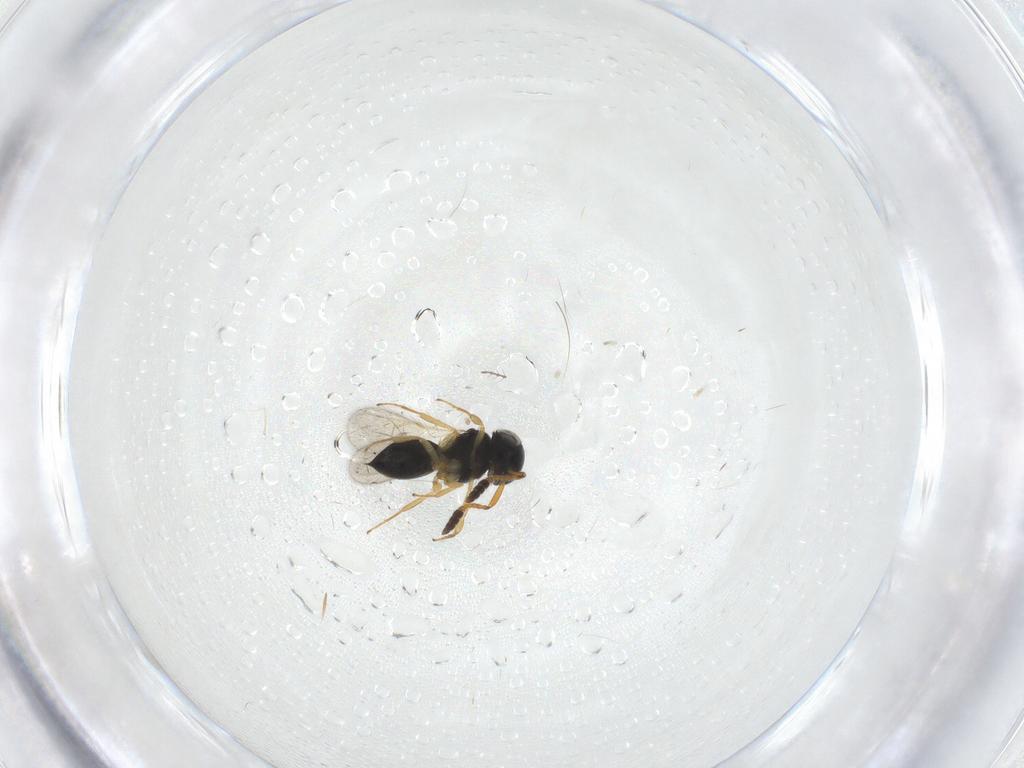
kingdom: Animalia
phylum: Arthropoda
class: Insecta
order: Hymenoptera
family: Scelionidae
